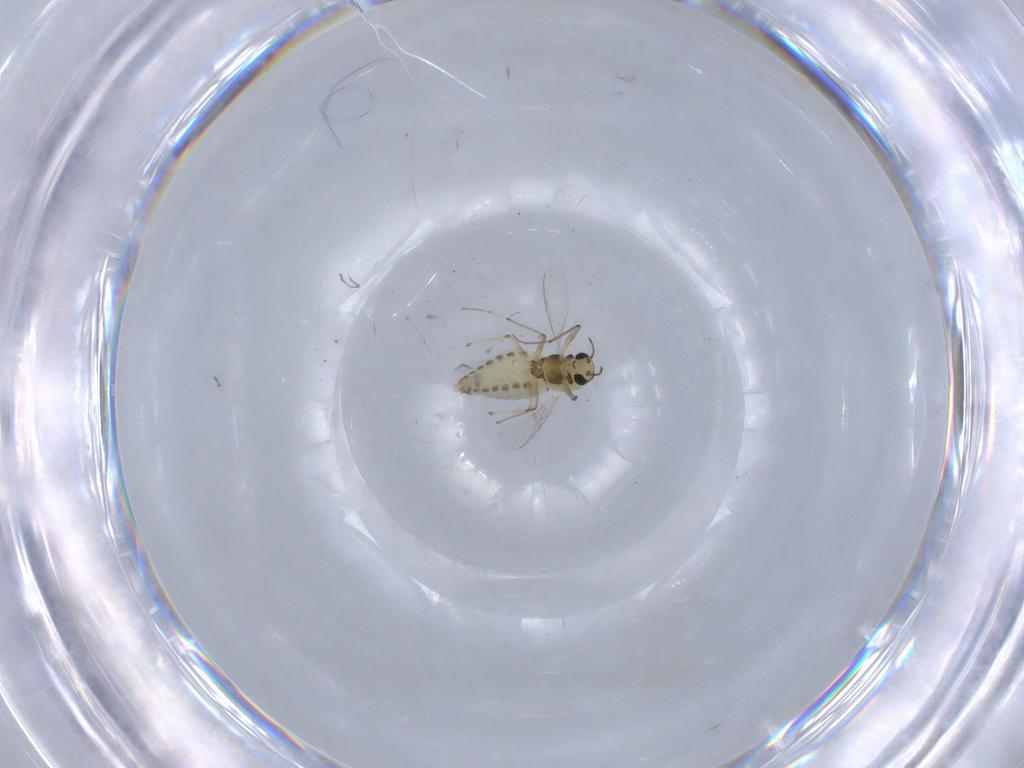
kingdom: Animalia
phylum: Arthropoda
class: Insecta
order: Diptera
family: Chironomidae
